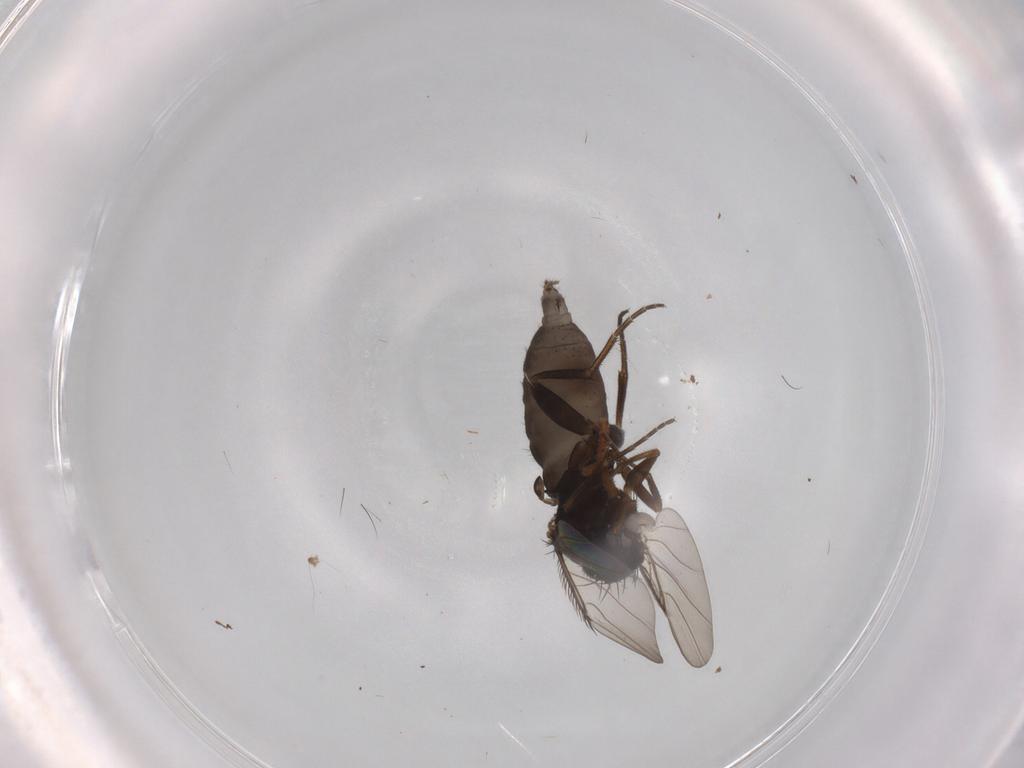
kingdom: Animalia
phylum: Arthropoda
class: Insecta
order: Diptera
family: Phoridae
